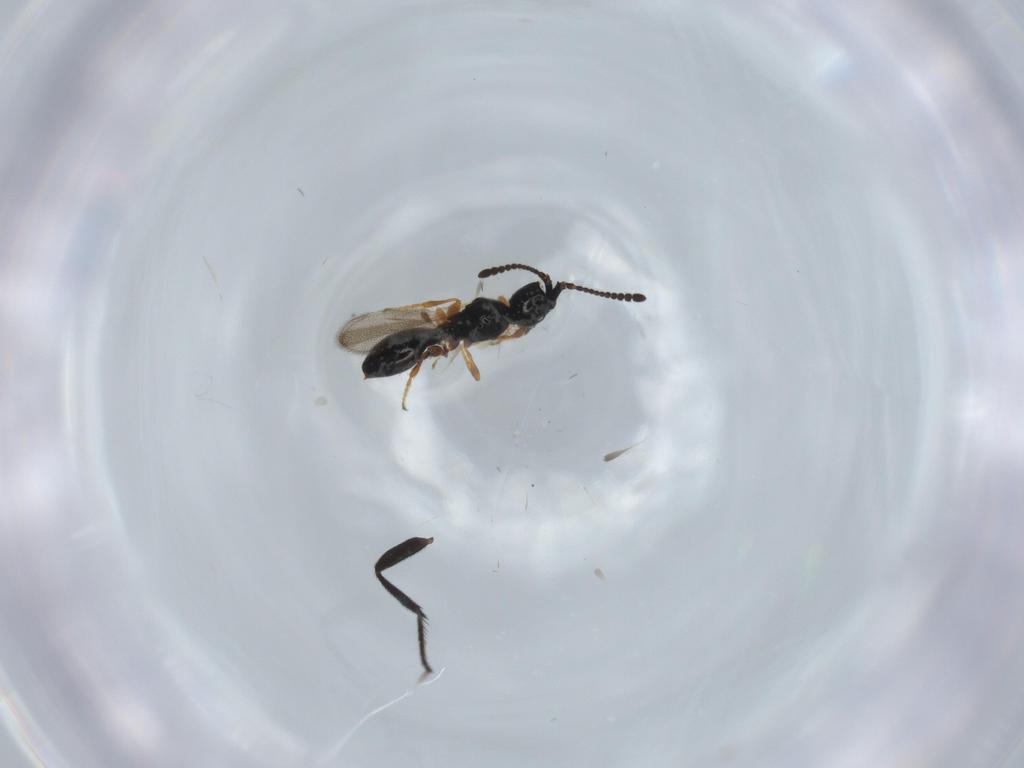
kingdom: Animalia
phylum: Arthropoda
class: Insecta
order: Hymenoptera
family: Diapriidae
